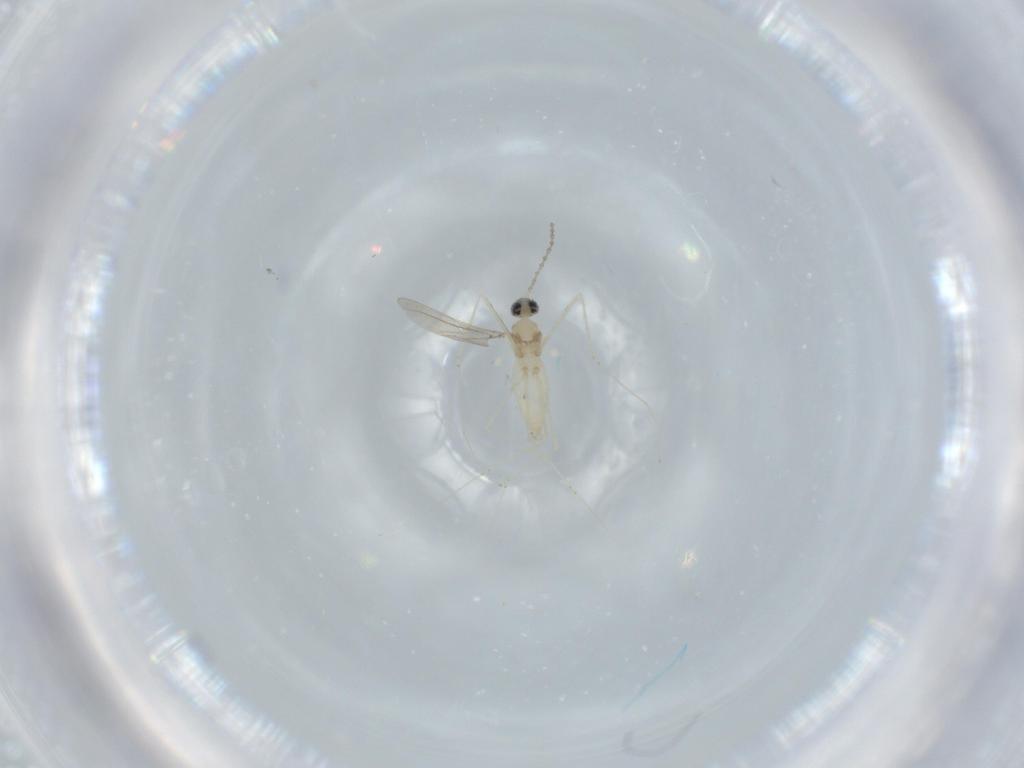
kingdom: Animalia
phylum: Arthropoda
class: Insecta
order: Diptera
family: Cecidomyiidae
